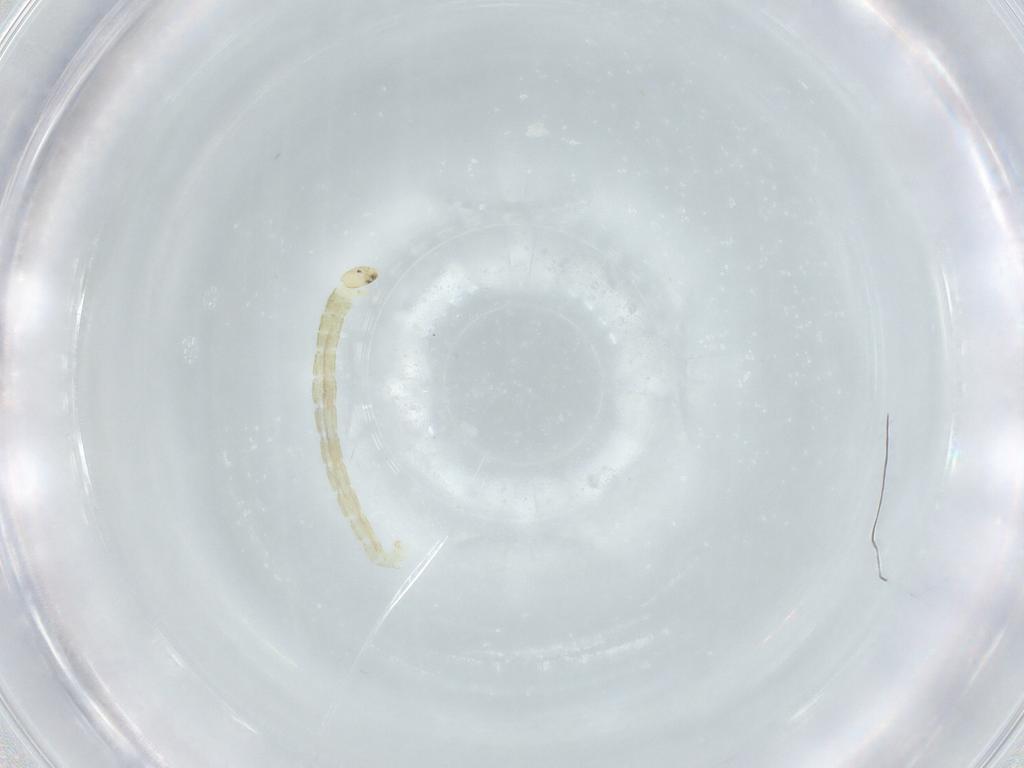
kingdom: Animalia
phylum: Arthropoda
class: Insecta
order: Diptera
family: Chironomidae
